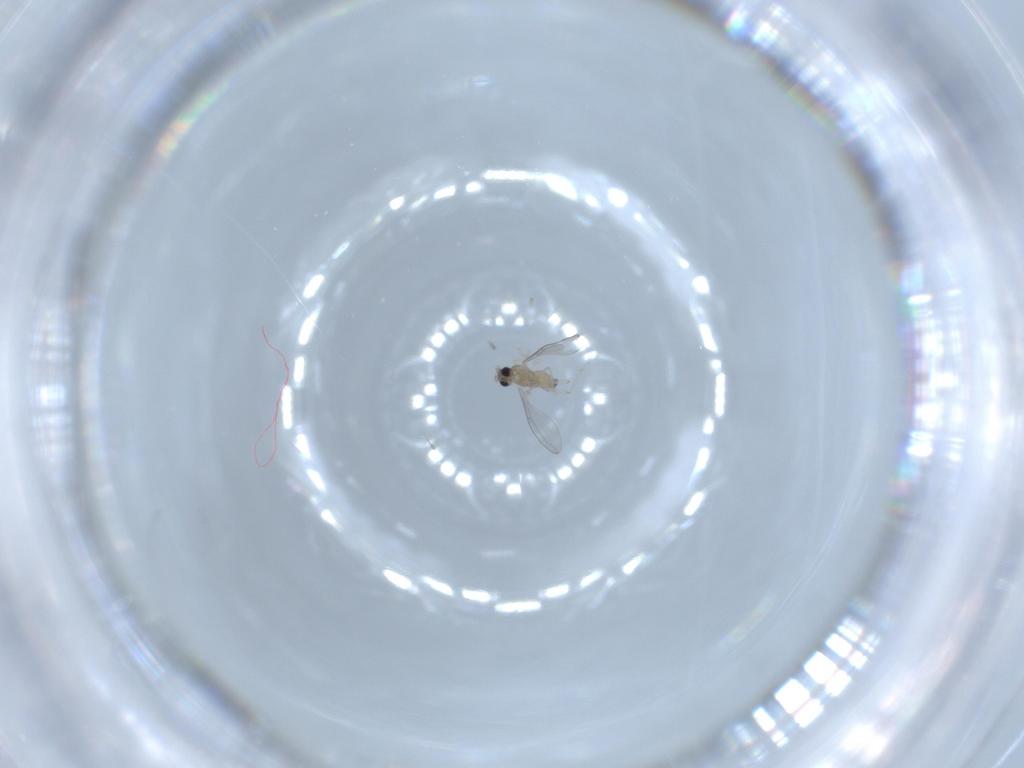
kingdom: Animalia
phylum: Arthropoda
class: Insecta
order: Diptera
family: Cecidomyiidae
